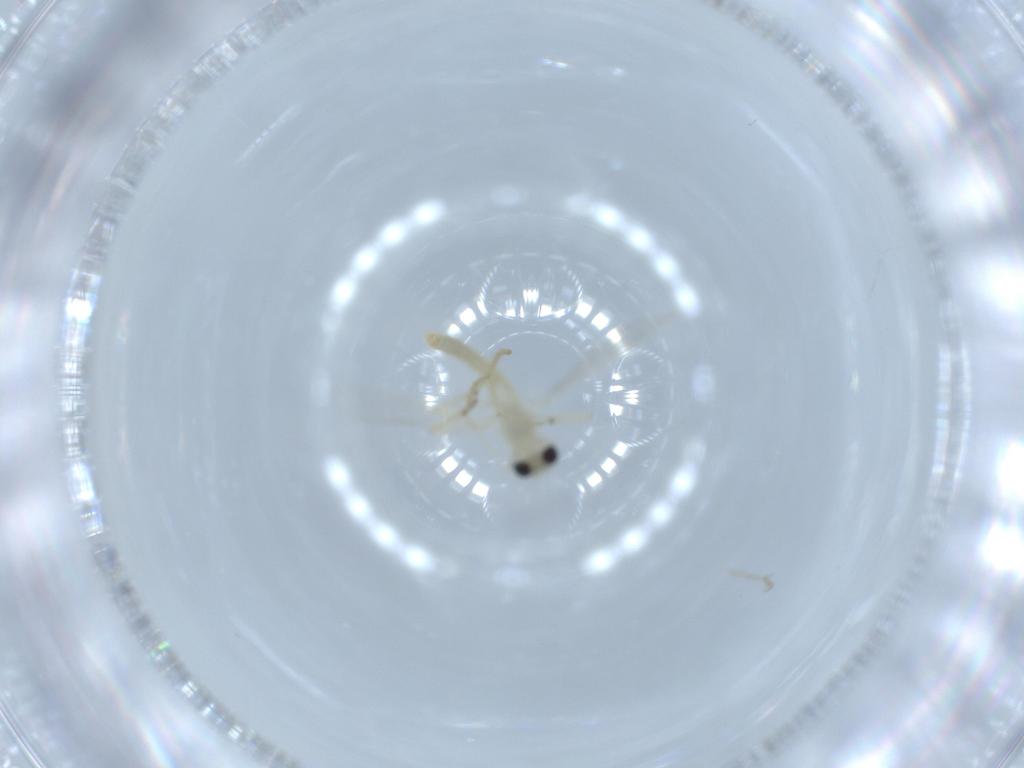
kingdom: Animalia
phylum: Arthropoda
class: Insecta
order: Diptera
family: Chironomidae
